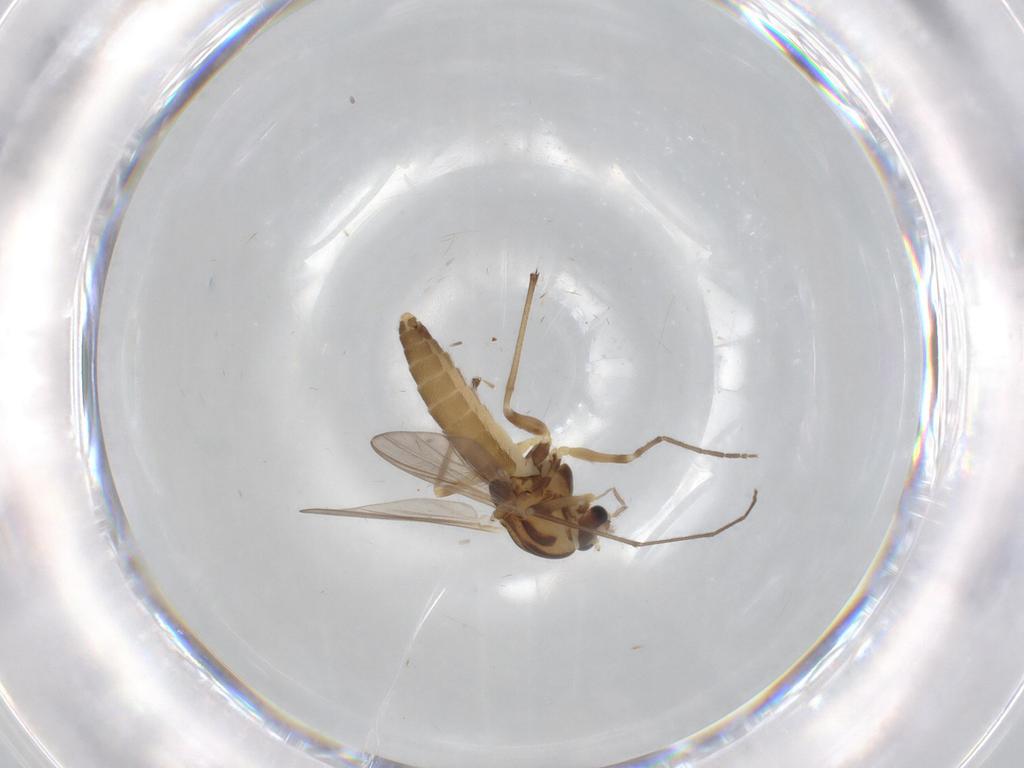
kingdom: Animalia
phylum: Arthropoda
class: Insecta
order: Diptera
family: Chironomidae
